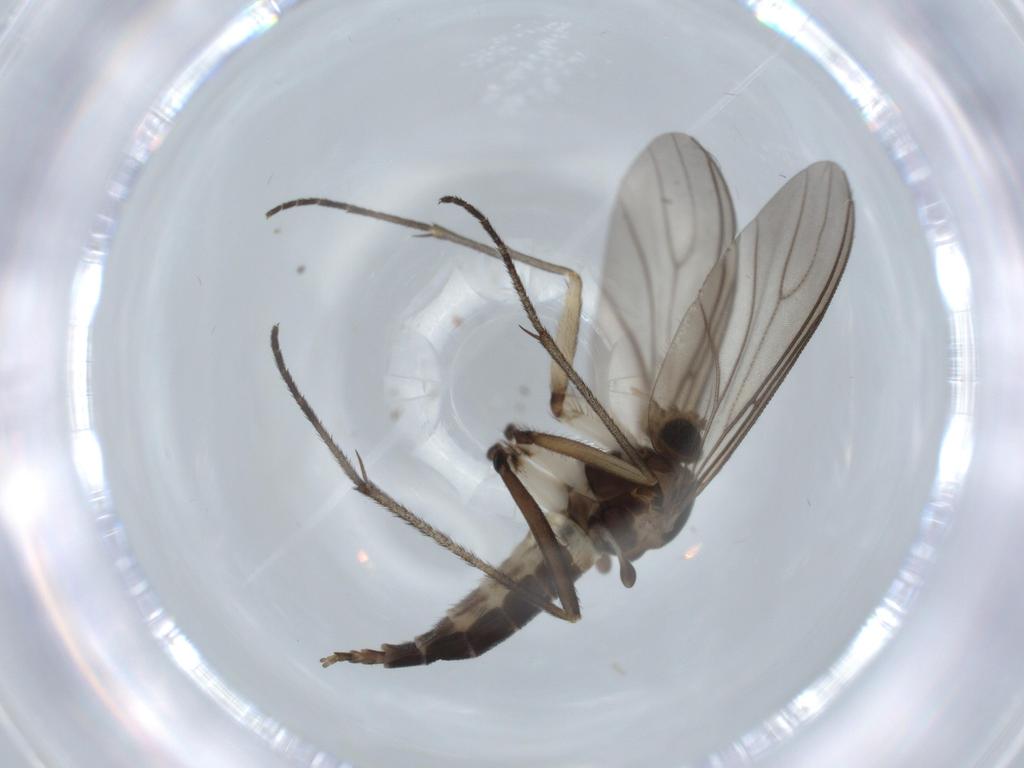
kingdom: Animalia
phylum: Arthropoda
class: Insecta
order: Diptera
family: Sciaridae
